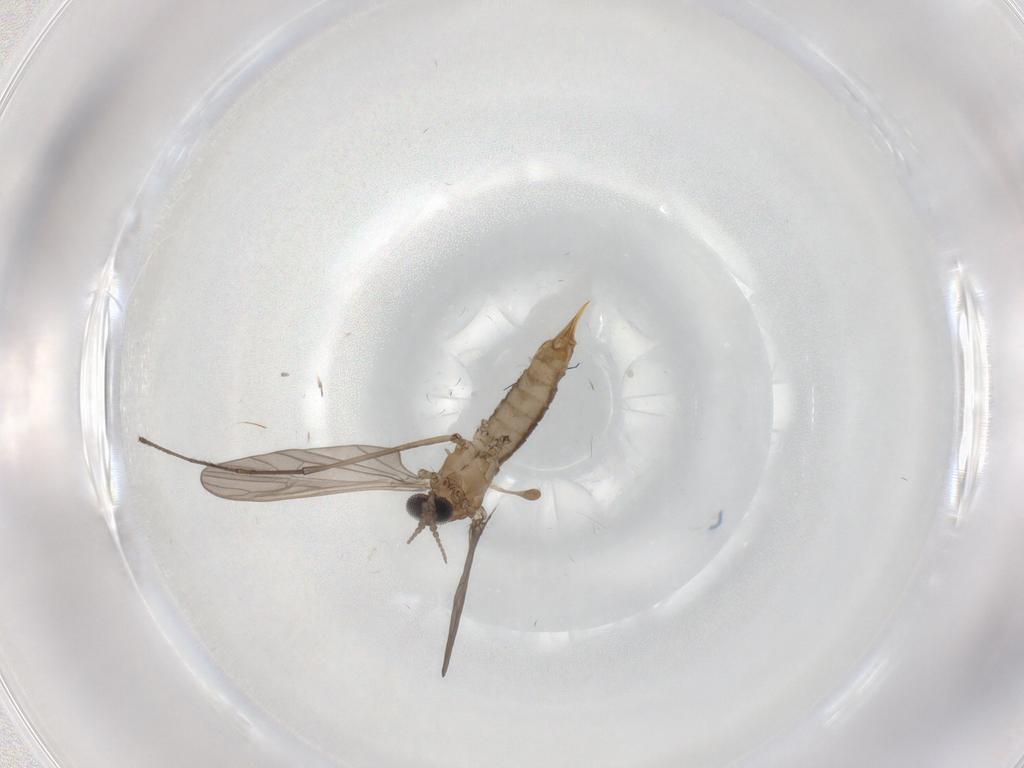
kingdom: Animalia
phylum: Arthropoda
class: Insecta
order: Diptera
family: Limoniidae
